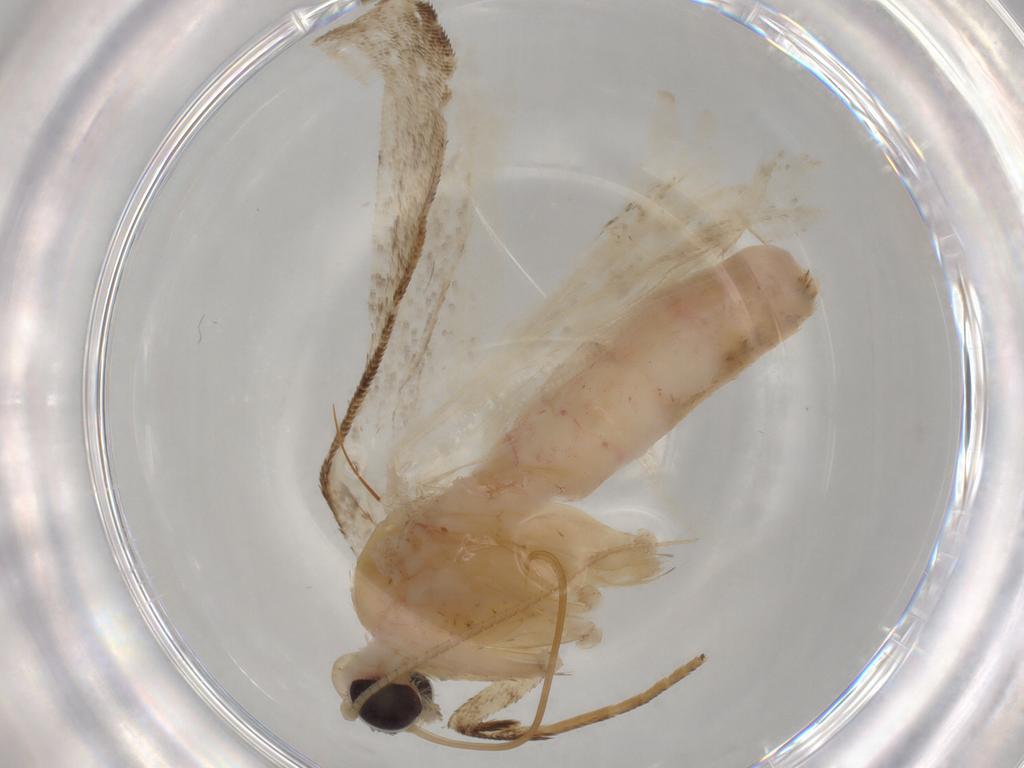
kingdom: Animalia
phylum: Arthropoda
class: Insecta
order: Lepidoptera
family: Erebidae
